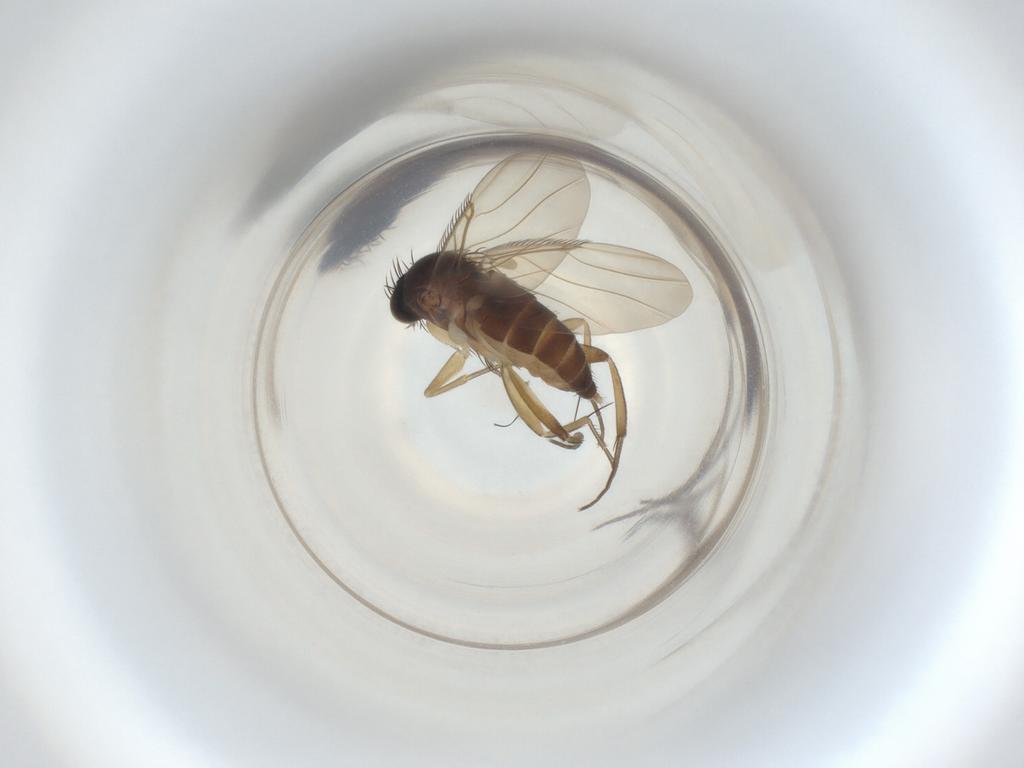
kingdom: Animalia
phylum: Arthropoda
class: Insecta
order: Diptera
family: Phoridae
